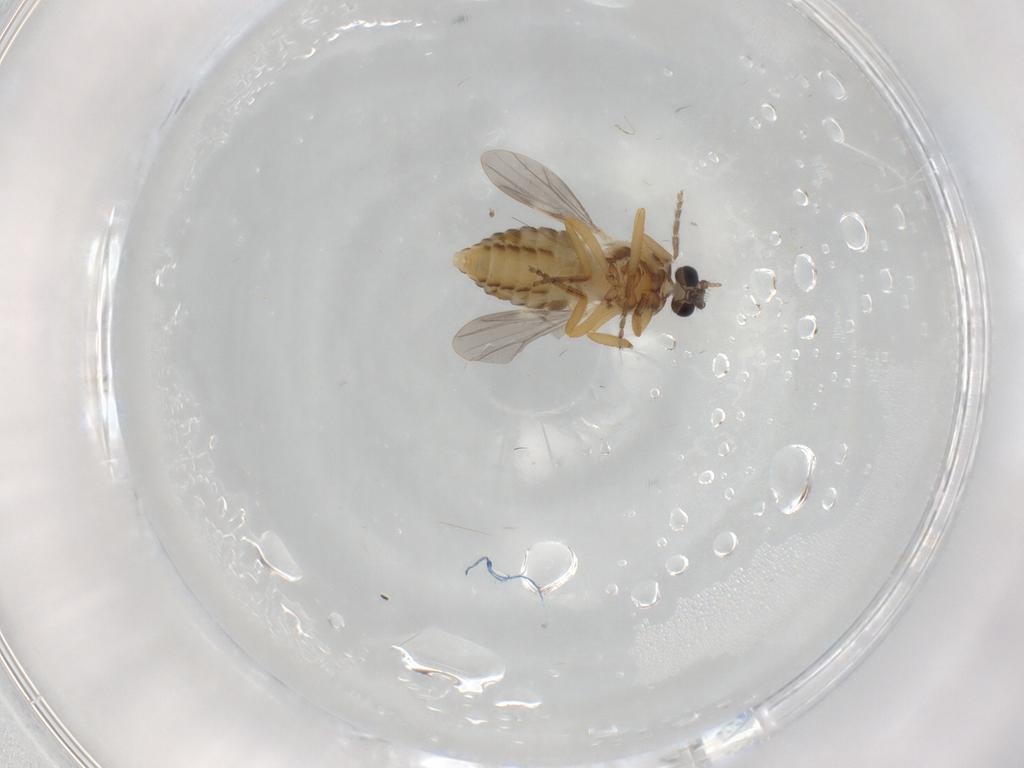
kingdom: Animalia
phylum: Arthropoda
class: Insecta
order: Diptera
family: Ceratopogonidae
